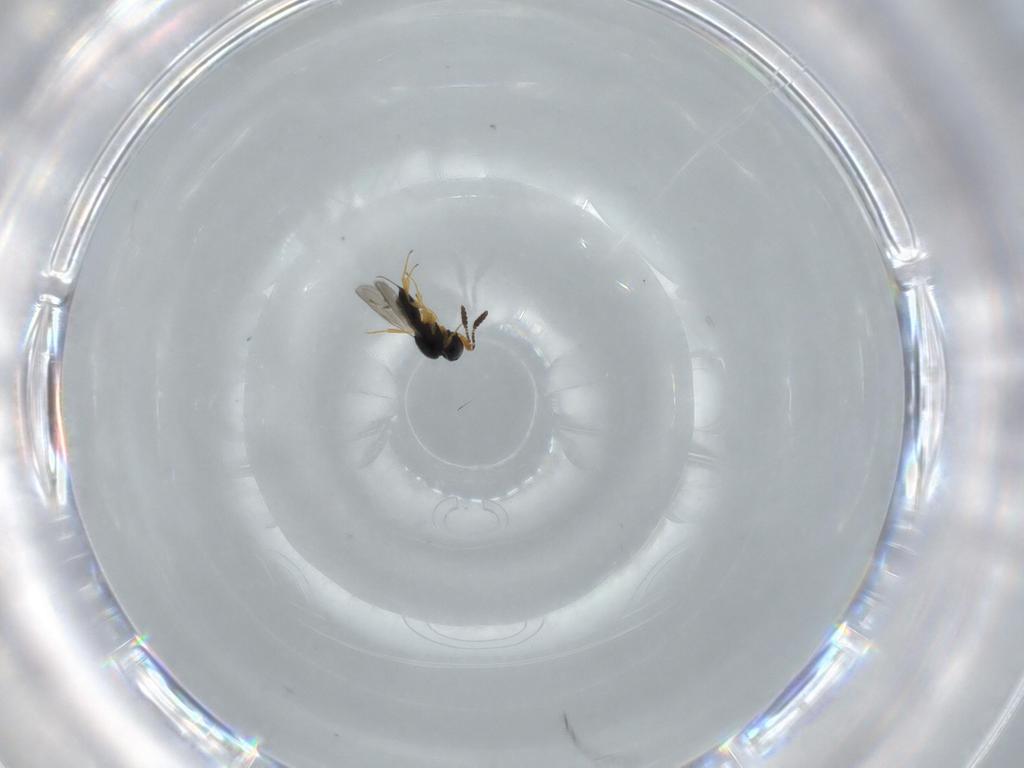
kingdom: Animalia
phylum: Arthropoda
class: Insecta
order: Hymenoptera
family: Scelionidae
